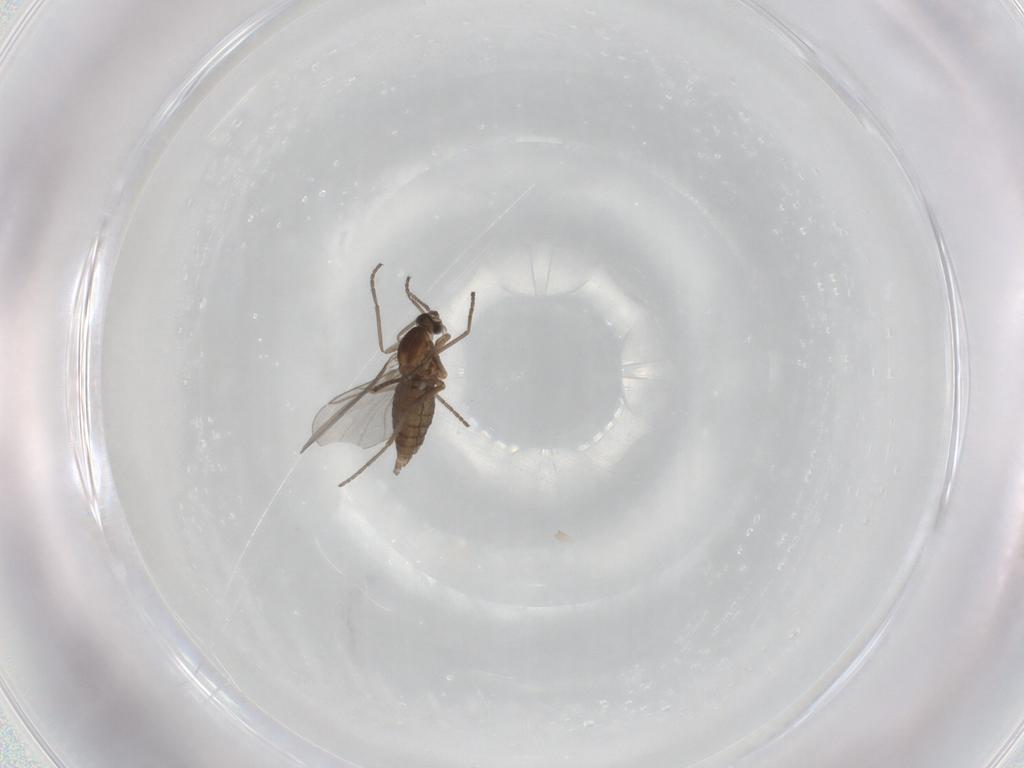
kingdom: Animalia
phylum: Arthropoda
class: Insecta
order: Diptera
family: Cecidomyiidae
